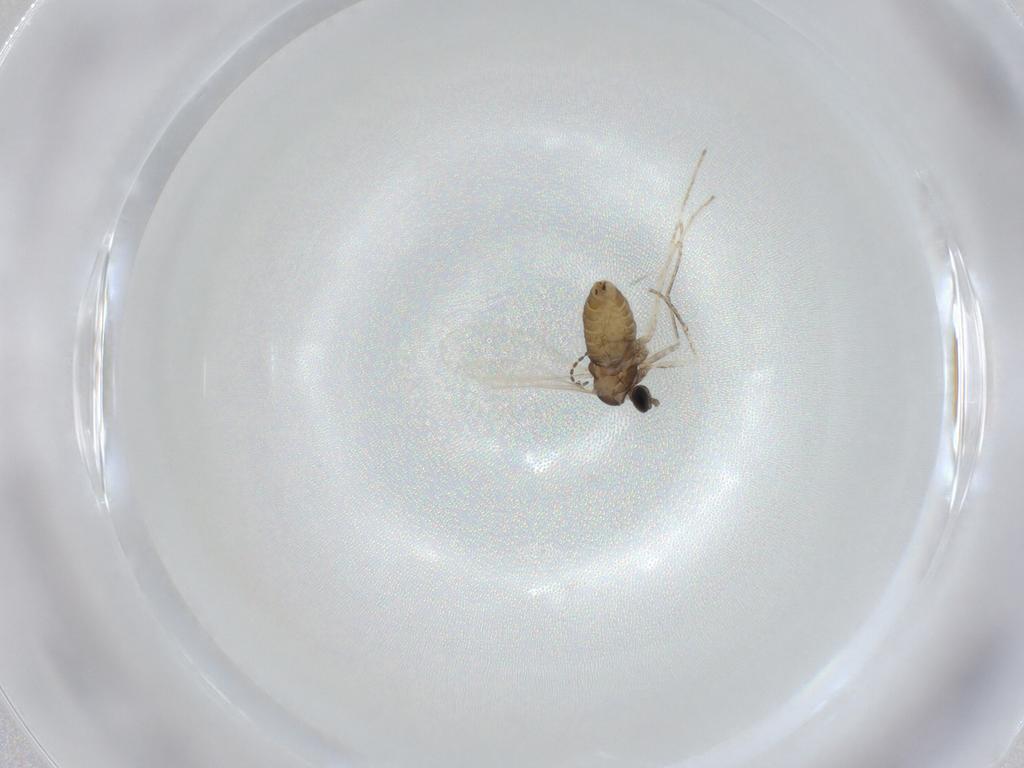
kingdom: Animalia
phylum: Arthropoda
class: Insecta
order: Diptera
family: Cecidomyiidae
